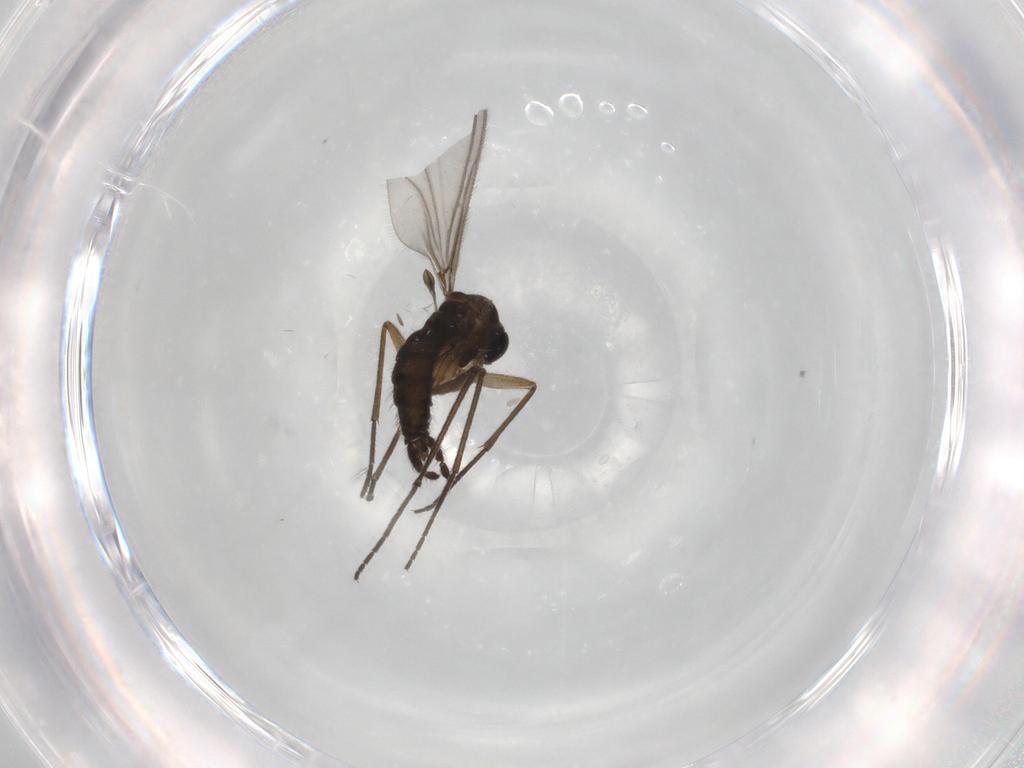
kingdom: Animalia
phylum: Arthropoda
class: Insecta
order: Diptera
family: Sciaridae
